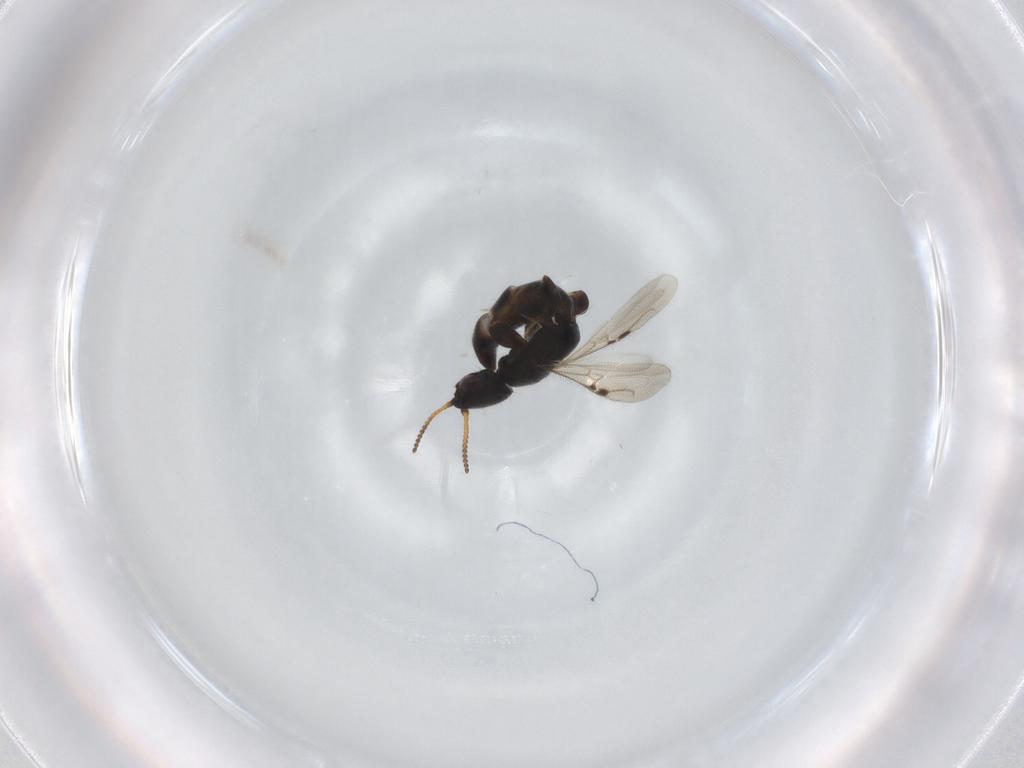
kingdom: Animalia
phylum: Arthropoda
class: Insecta
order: Hymenoptera
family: Bethylidae
